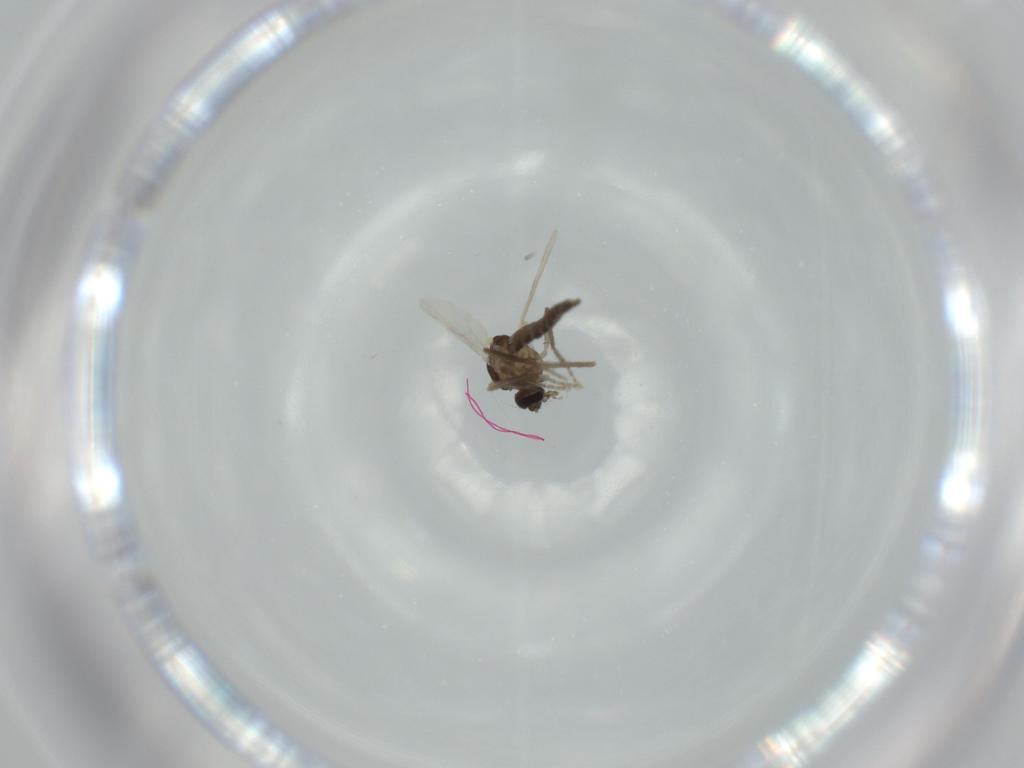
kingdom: Animalia
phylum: Arthropoda
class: Insecta
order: Diptera
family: Ceratopogonidae
